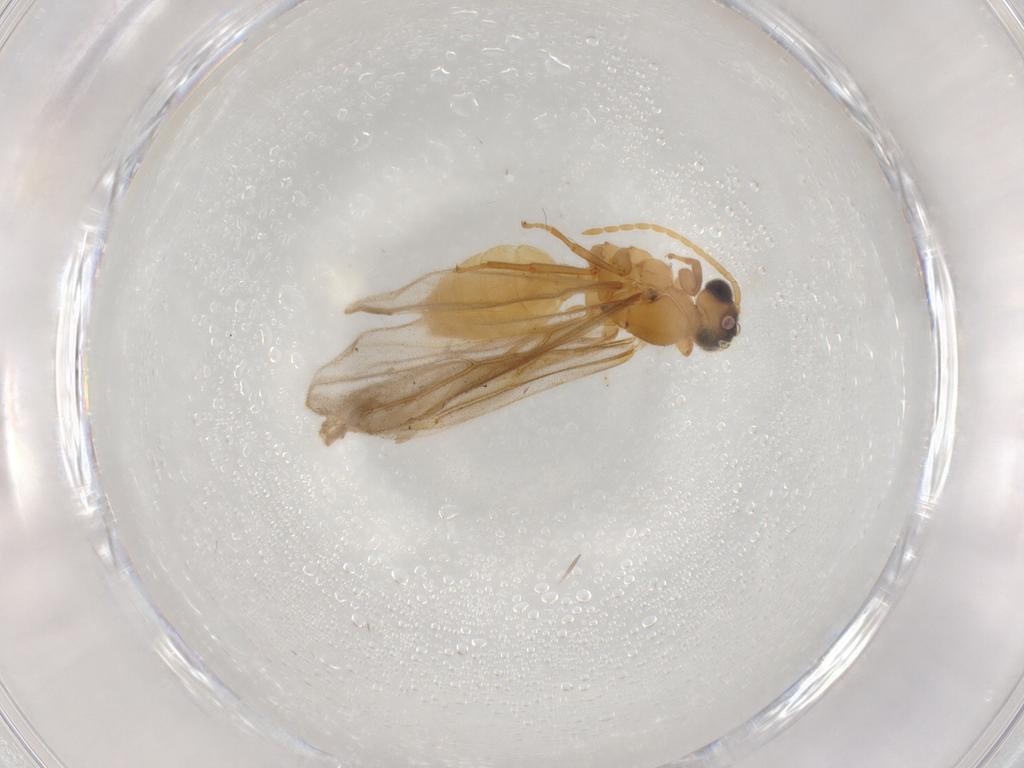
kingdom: Animalia
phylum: Arthropoda
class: Insecta
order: Hymenoptera
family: Formicidae
